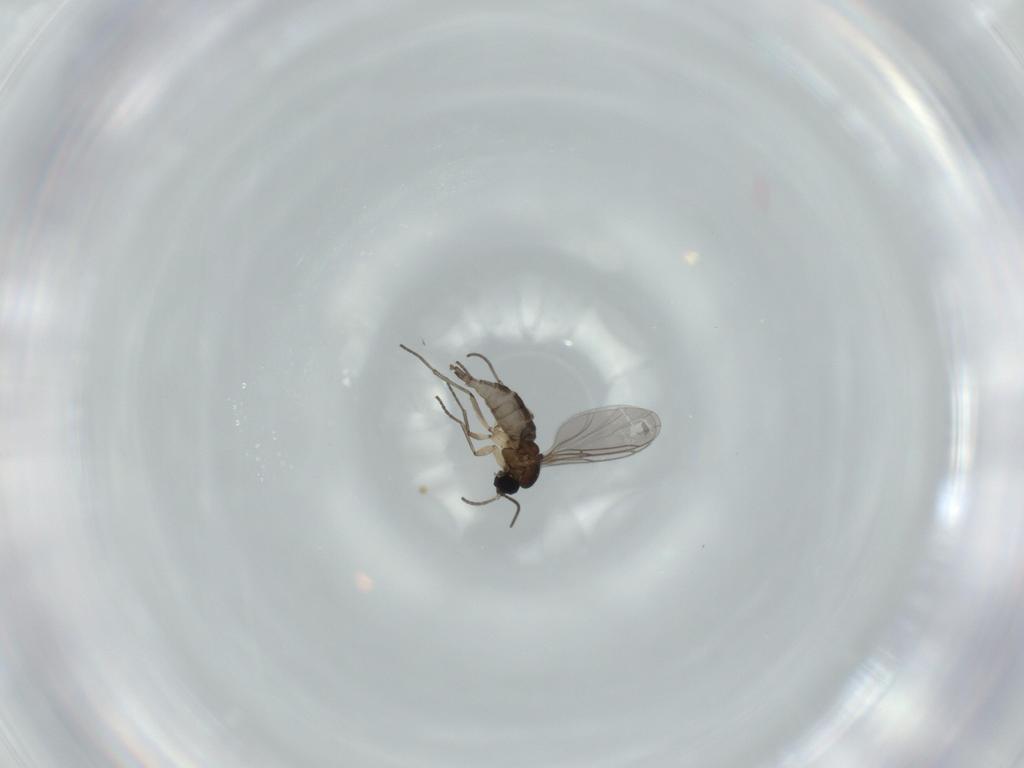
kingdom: Animalia
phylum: Arthropoda
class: Insecta
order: Diptera
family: Sciaridae
